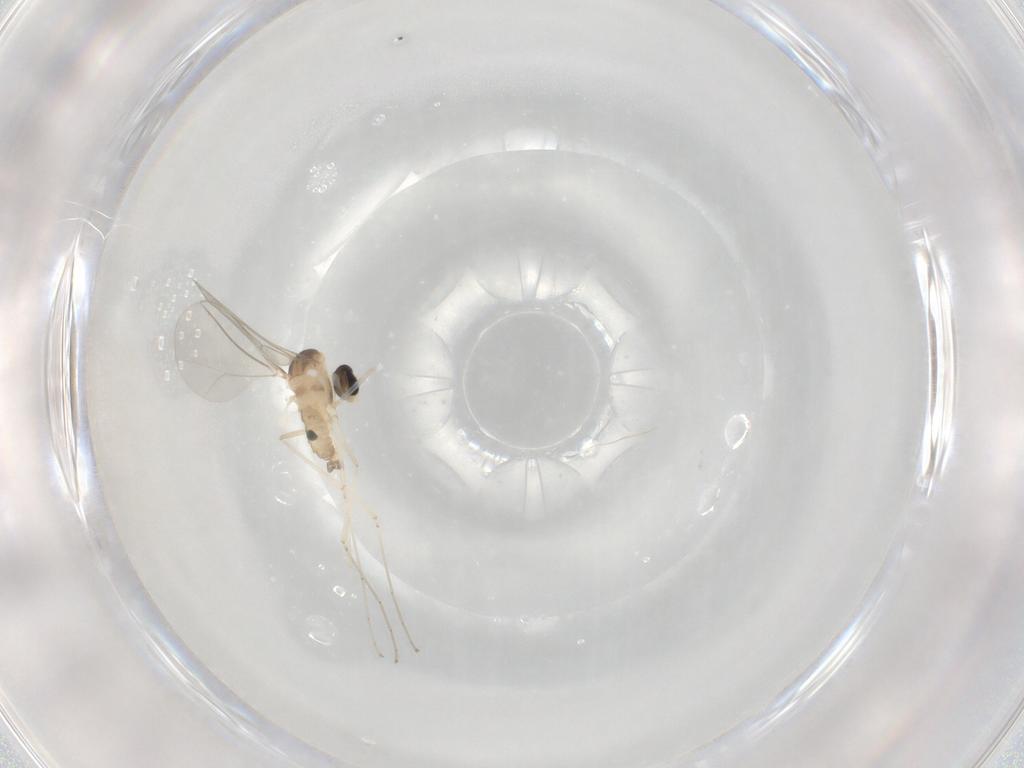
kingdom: Animalia
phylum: Arthropoda
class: Insecta
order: Diptera
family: Cecidomyiidae
